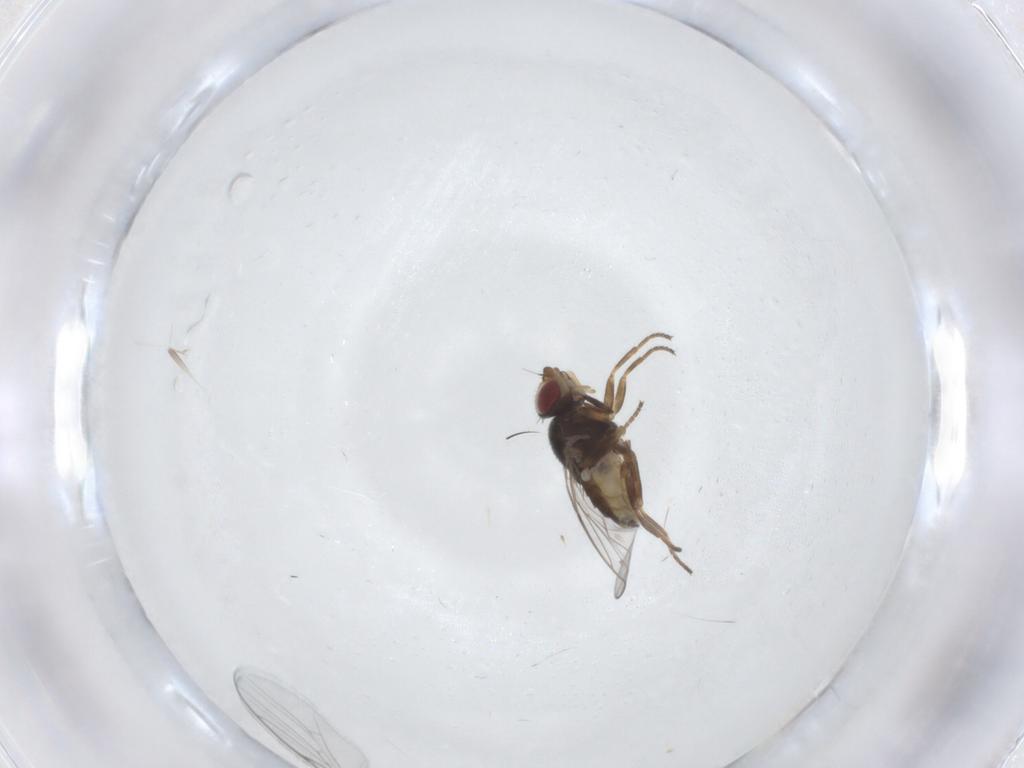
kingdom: Animalia
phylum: Arthropoda
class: Insecta
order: Diptera
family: Chloropidae
